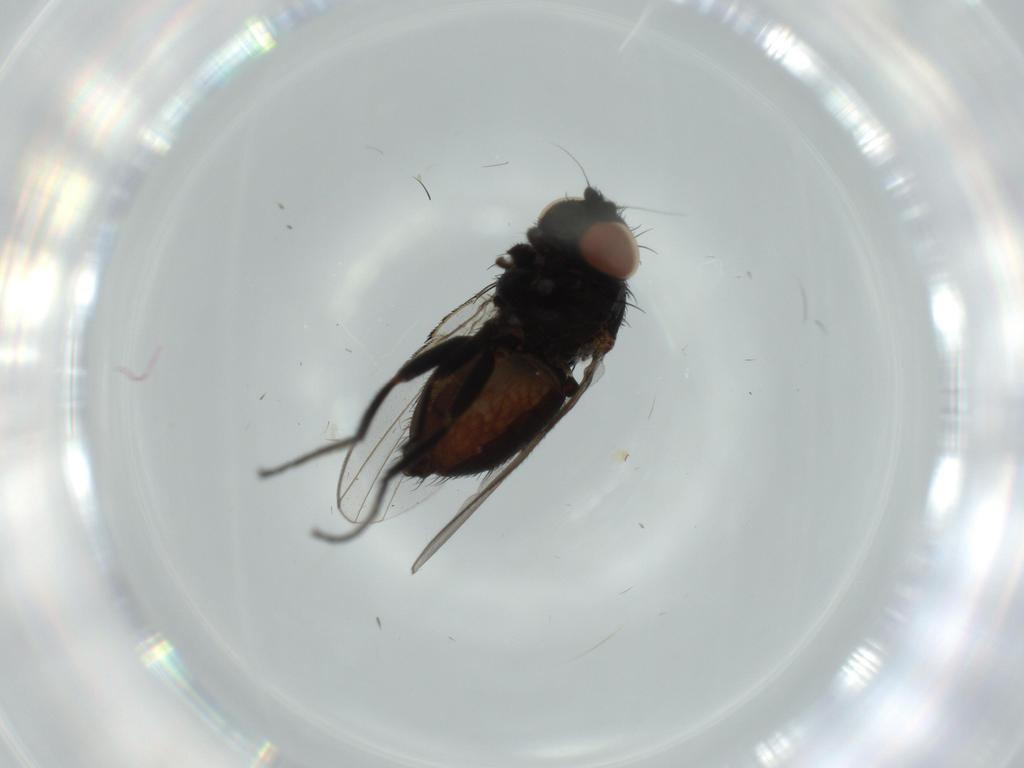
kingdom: Animalia
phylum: Arthropoda
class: Insecta
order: Diptera
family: Milichiidae
